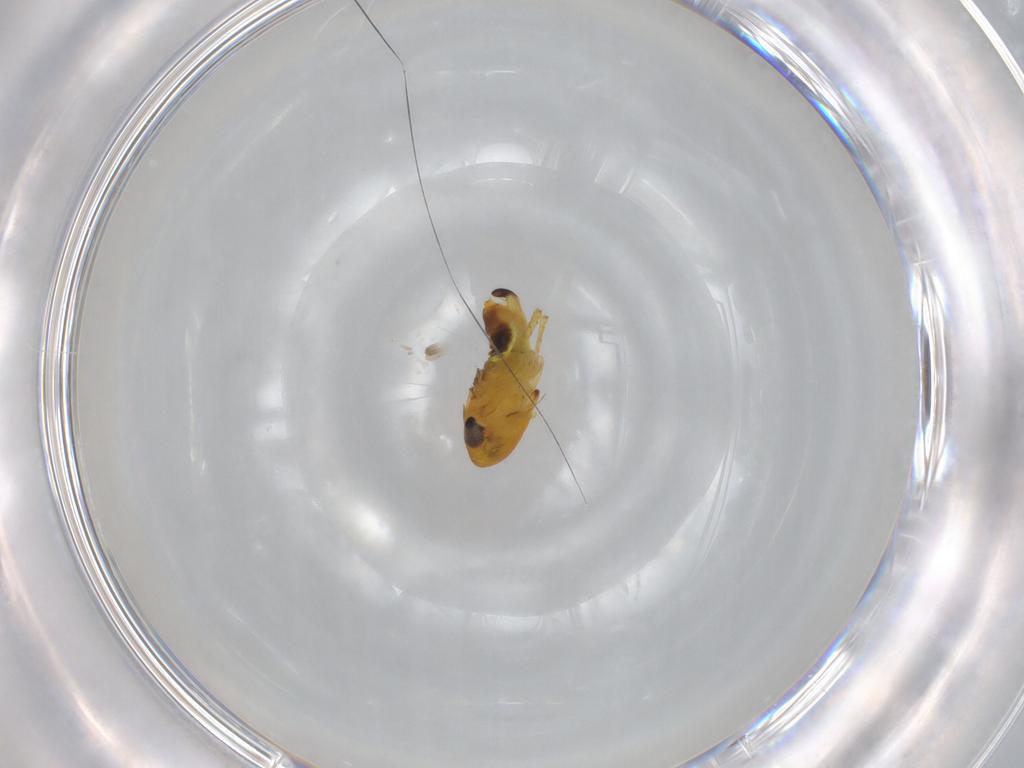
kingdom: Animalia
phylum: Arthropoda
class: Insecta
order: Hemiptera
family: Cicadellidae
